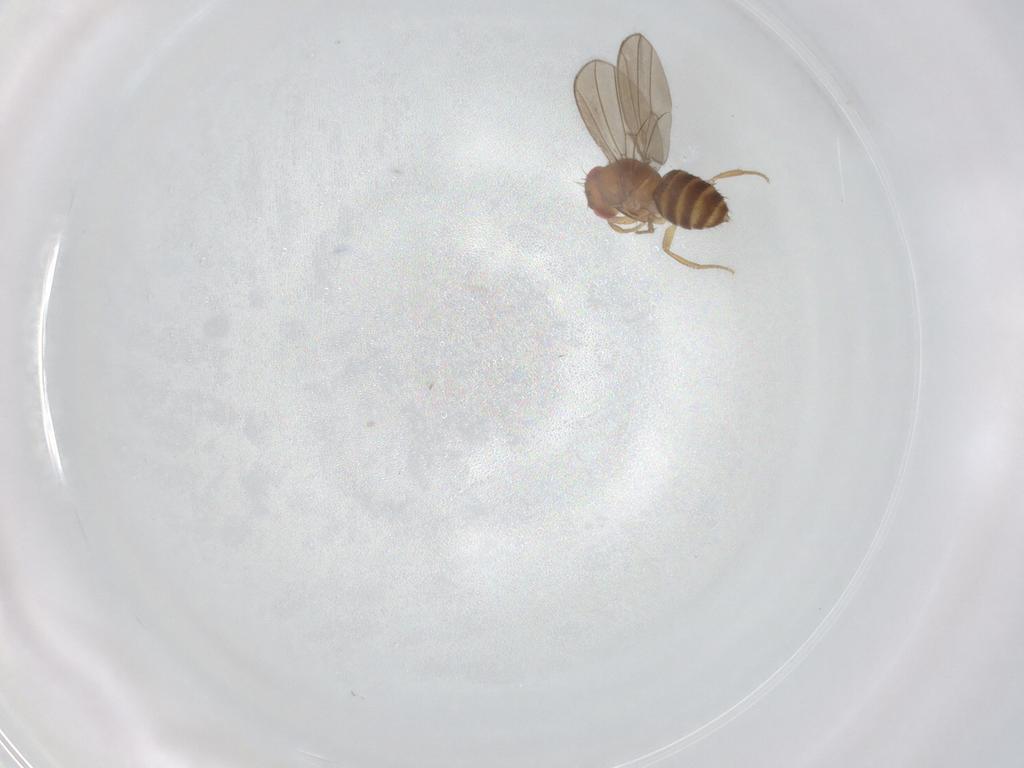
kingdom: Animalia
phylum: Arthropoda
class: Insecta
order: Diptera
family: Drosophilidae
